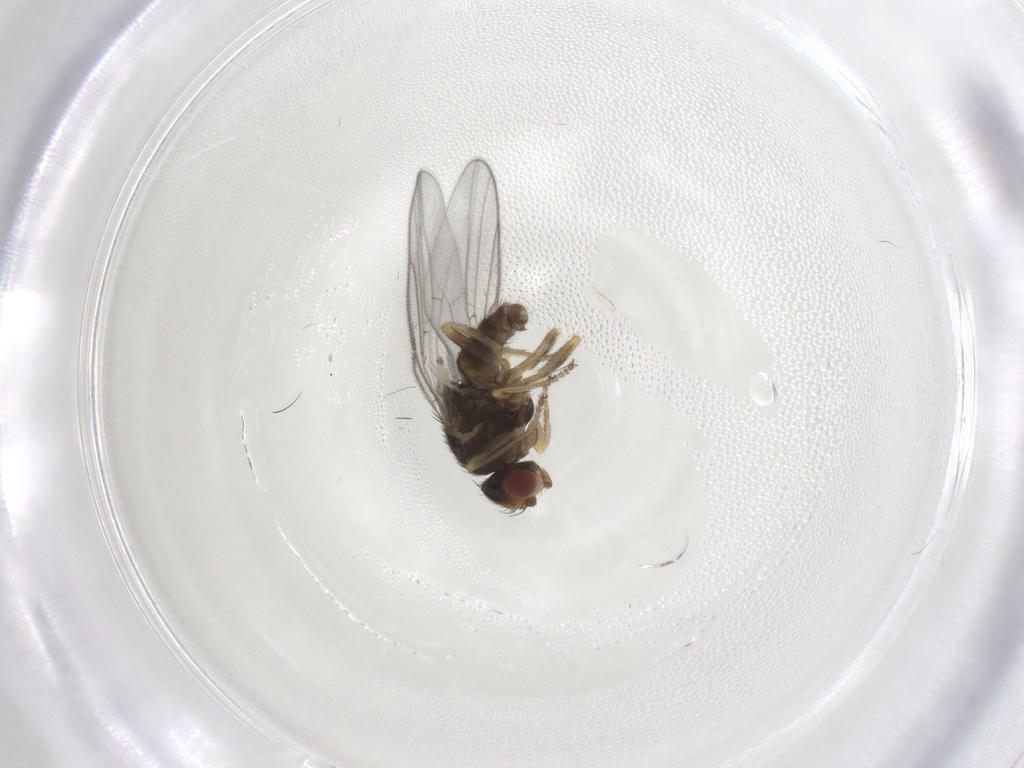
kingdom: Animalia
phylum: Arthropoda
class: Insecta
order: Diptera
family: Chloropidae
